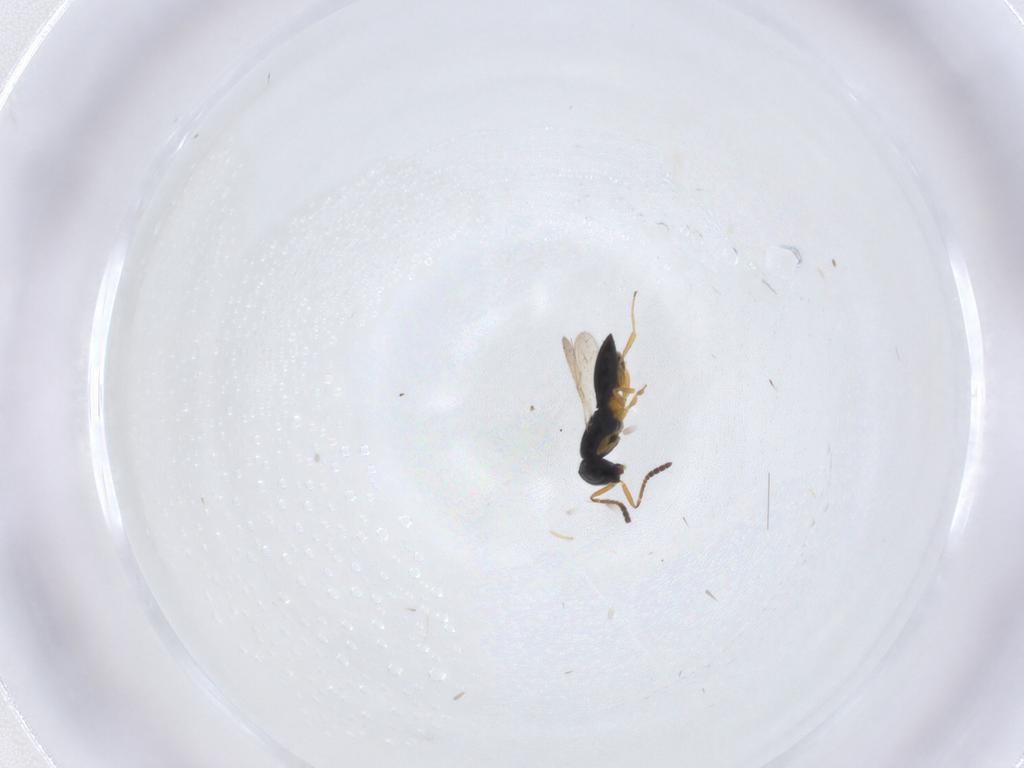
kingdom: Animalia
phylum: Arthropoda
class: Insecta
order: Hymenoptera
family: Scelionidae
